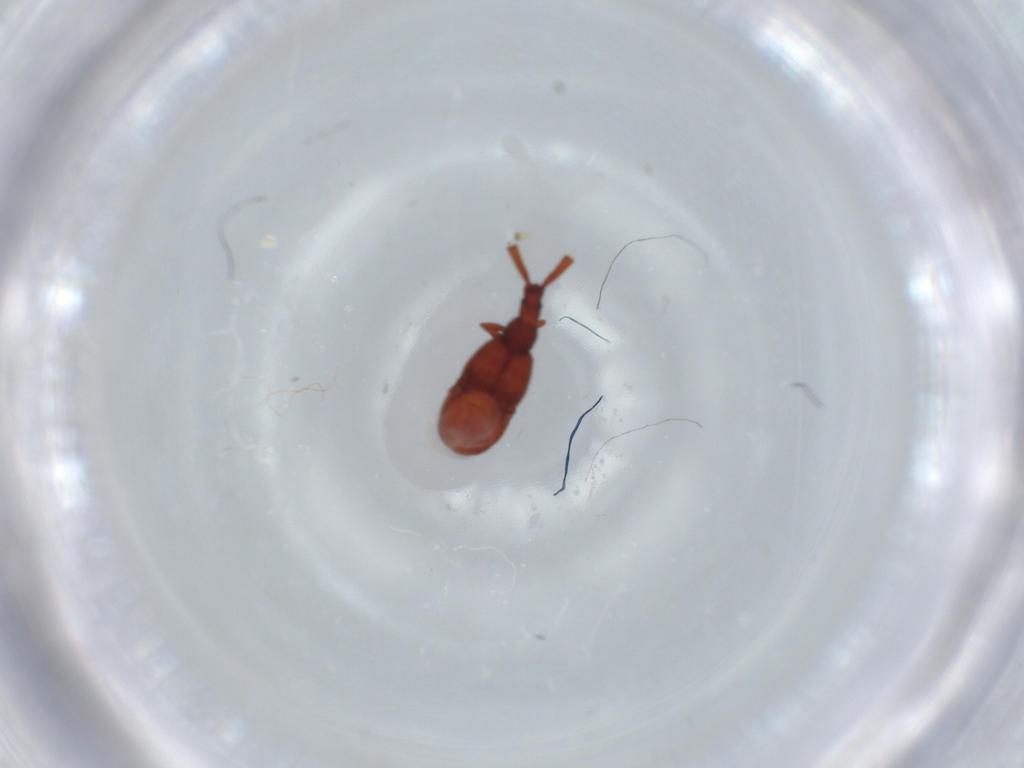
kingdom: Animalia
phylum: Arthropoda
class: Insecta
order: Coleoptera
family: Staphylinidae
